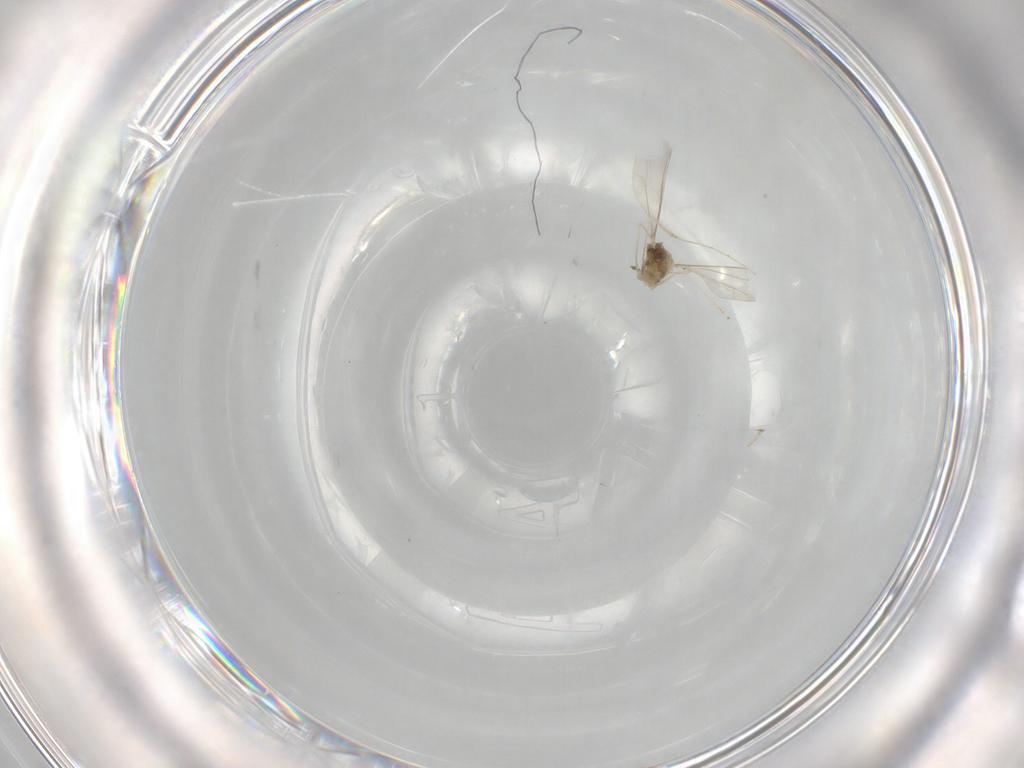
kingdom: Animalia
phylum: Arthropoda
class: Insecta
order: Diptera
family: Cecidomyiidae
